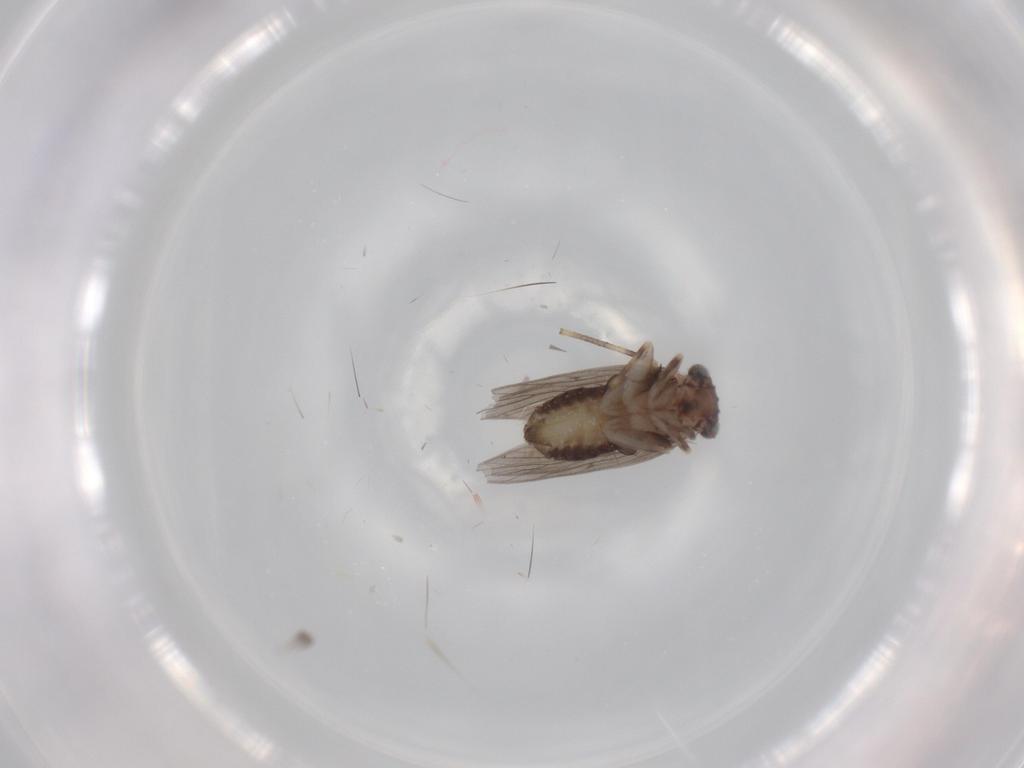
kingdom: Animalia
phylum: Arthropoda
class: Insecta
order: Psocodea
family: Lepidopsocidae
